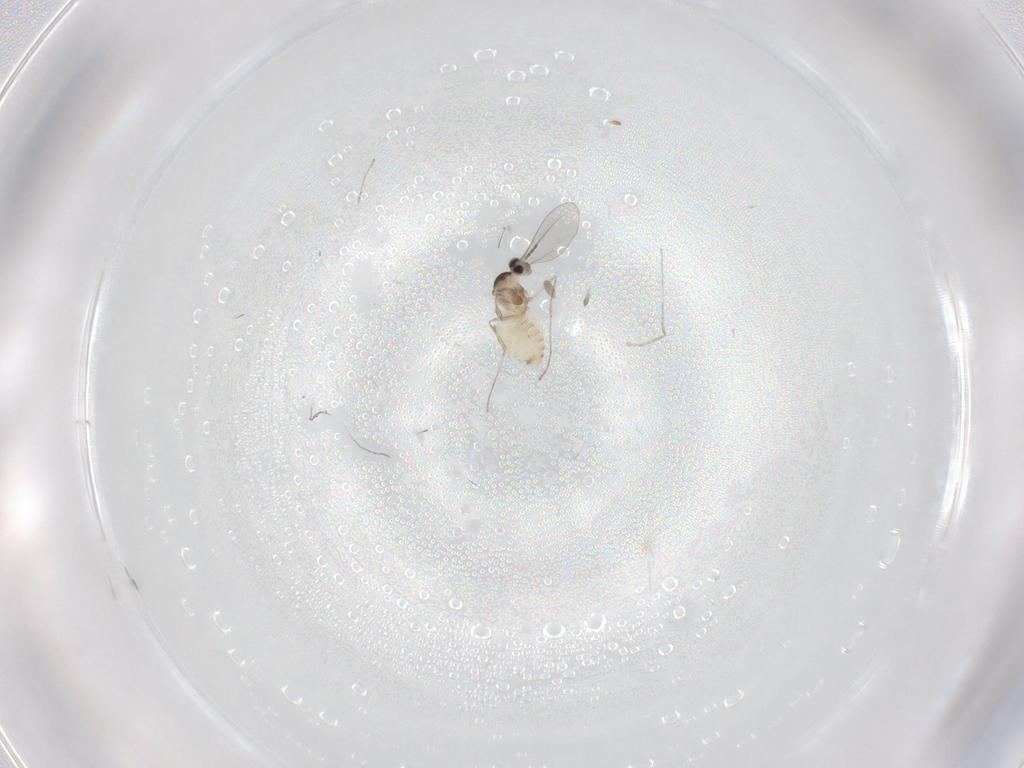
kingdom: Animalia
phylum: Arthropoda
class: Insecta
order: Diptera
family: Cecidomyiidae
